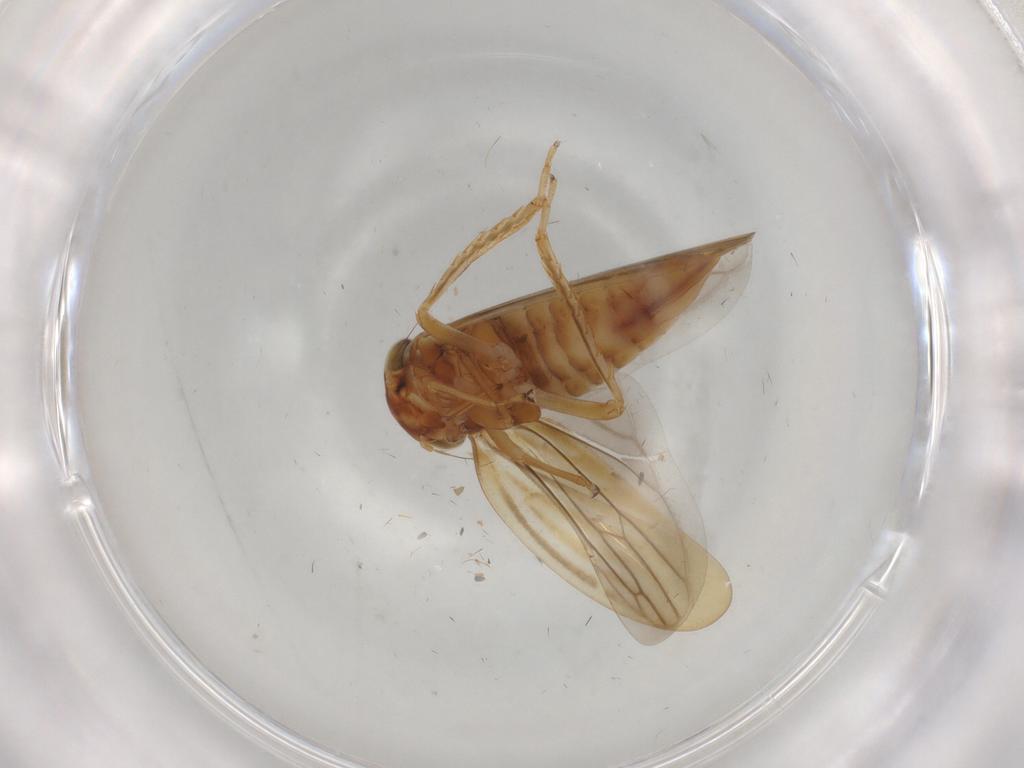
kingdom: Animalia
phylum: Arthropoda
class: Insecta
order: Hemiptera
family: Cicadellidae
